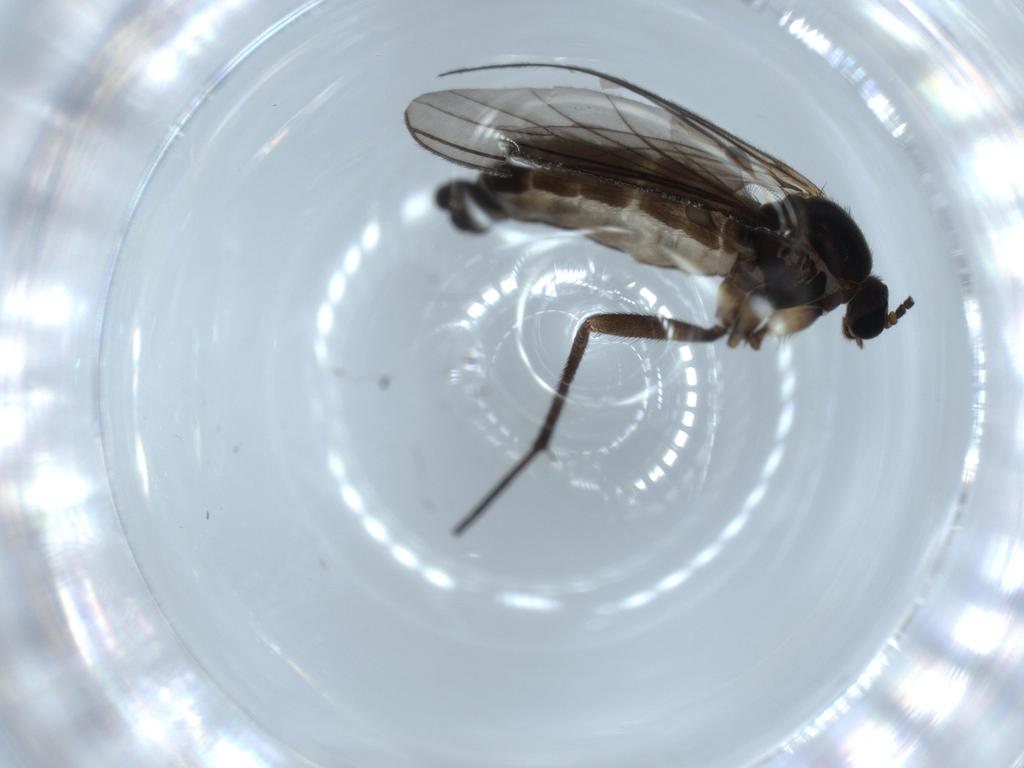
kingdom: Animalia
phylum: Arthropoda
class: Insecta
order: Diptera
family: Sciaridae
